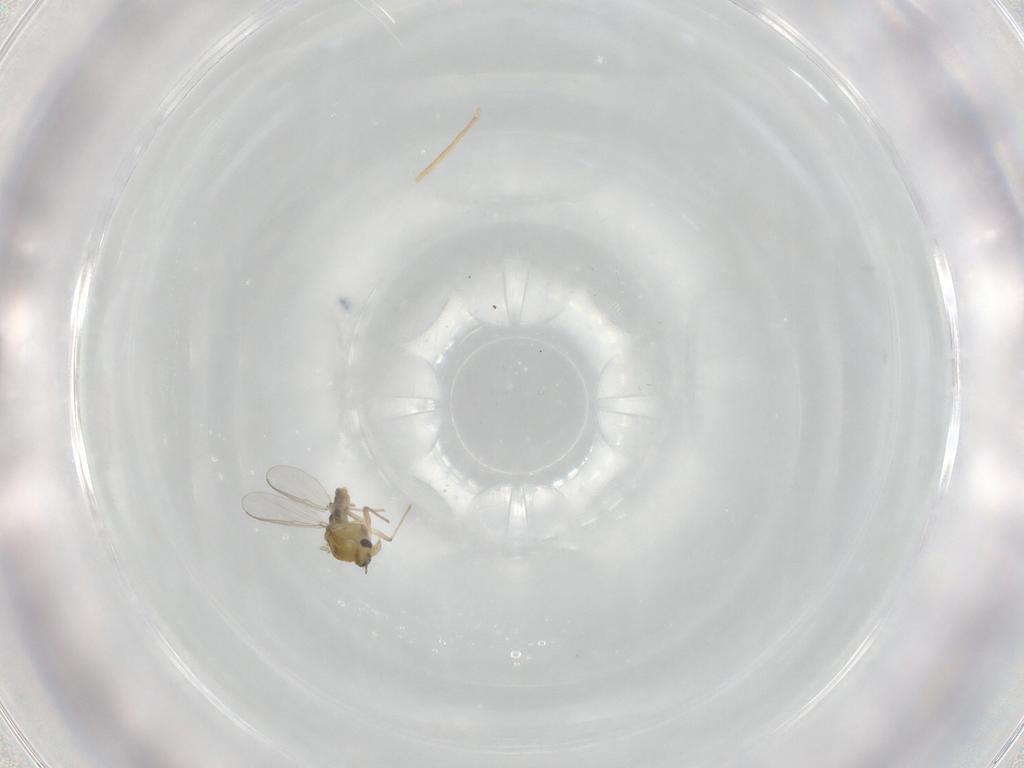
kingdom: Animalia
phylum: Arthropoda
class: Insecta
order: Diptera
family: Chironomidae
